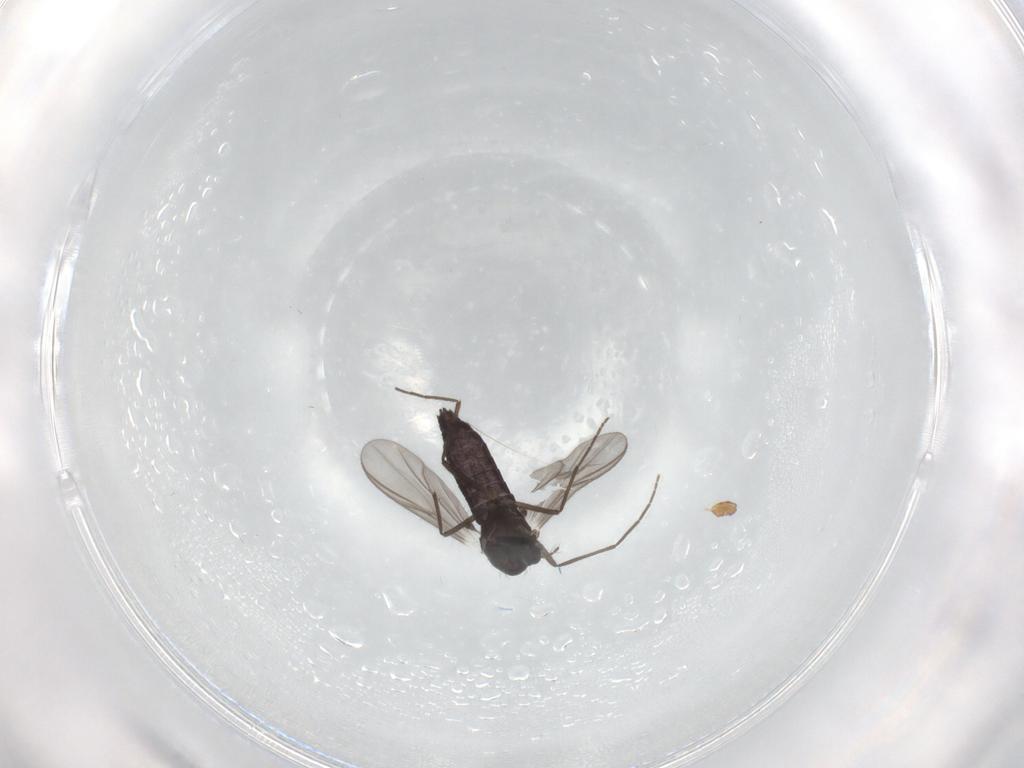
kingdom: Animalia
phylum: Arthropoda
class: Insecta
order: Diptera
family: Chironomidae
